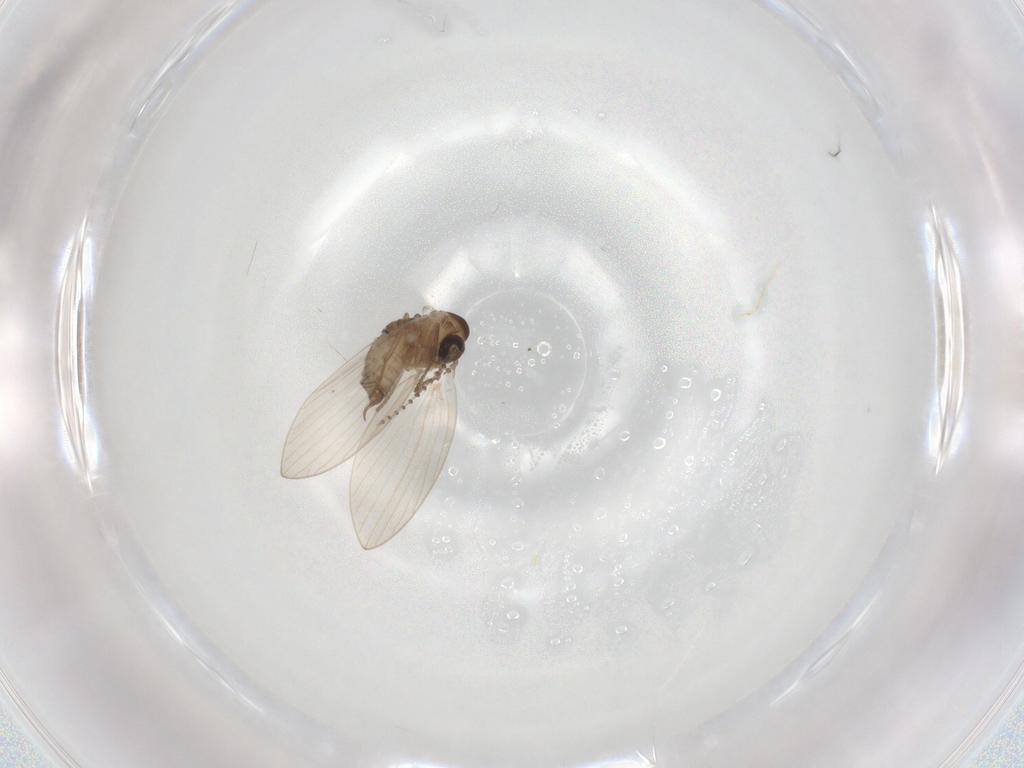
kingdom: Animalia
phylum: Arthropoda
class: Insecta
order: Diptera
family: Psychodidae
